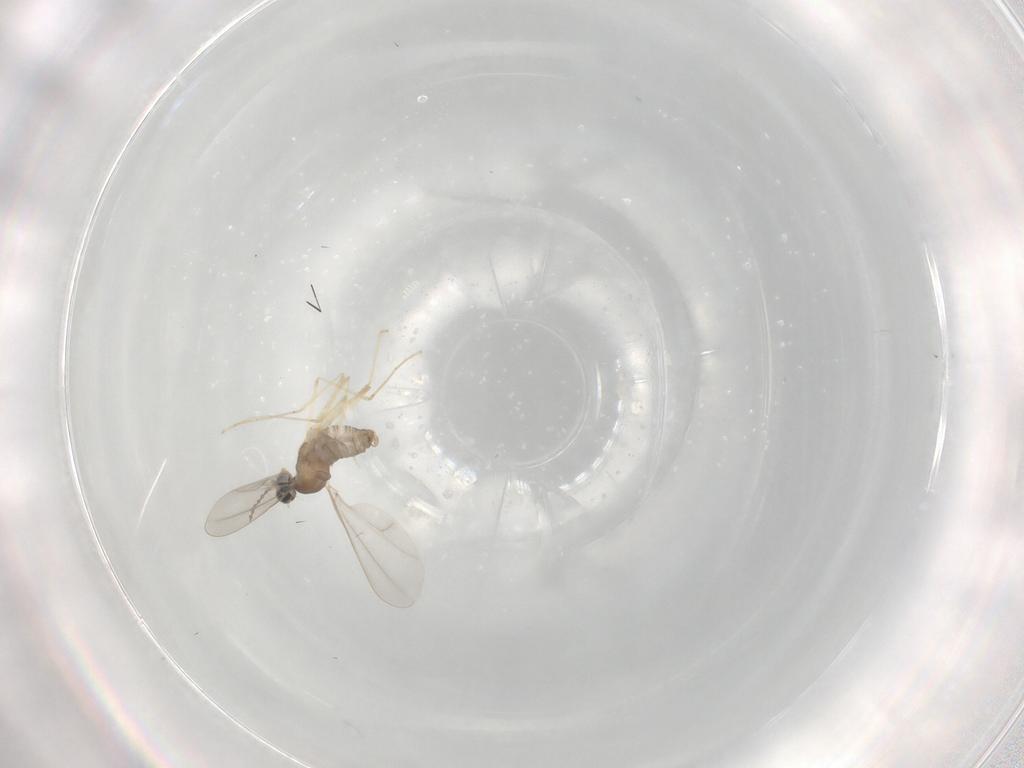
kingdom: Animalia
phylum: Arthropoda
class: Insecta
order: Diptera
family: Cecidomyiidae
